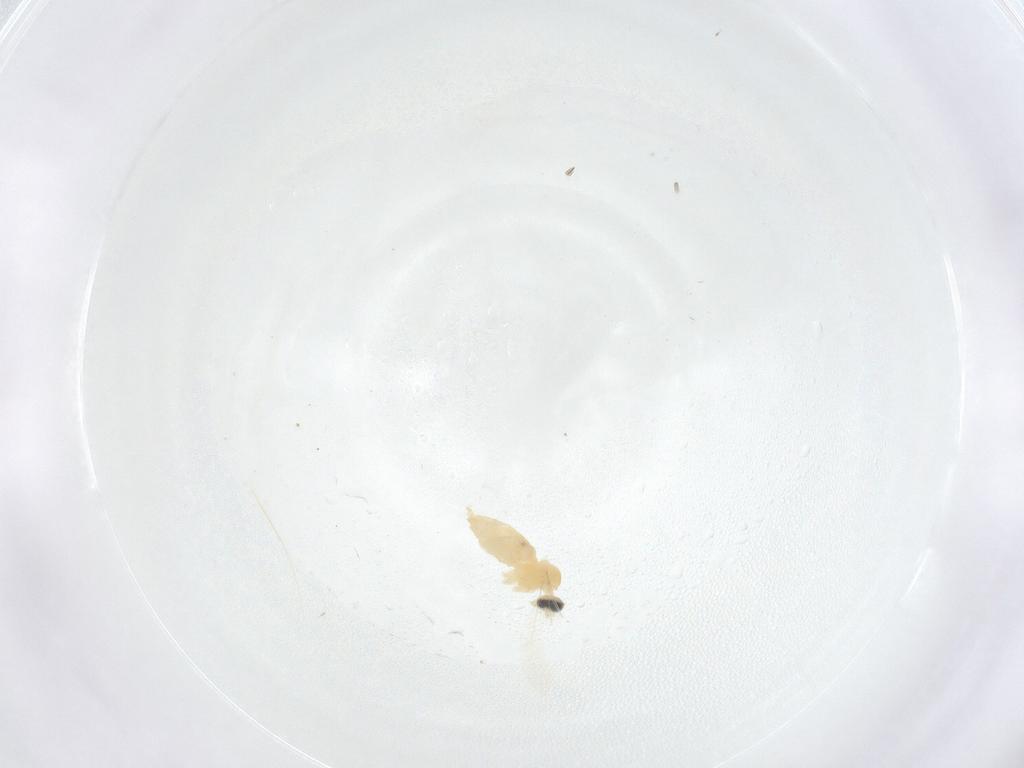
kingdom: Animalia
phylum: Arthropoda
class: Insecta
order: Diptera
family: Cecidomyiidae
